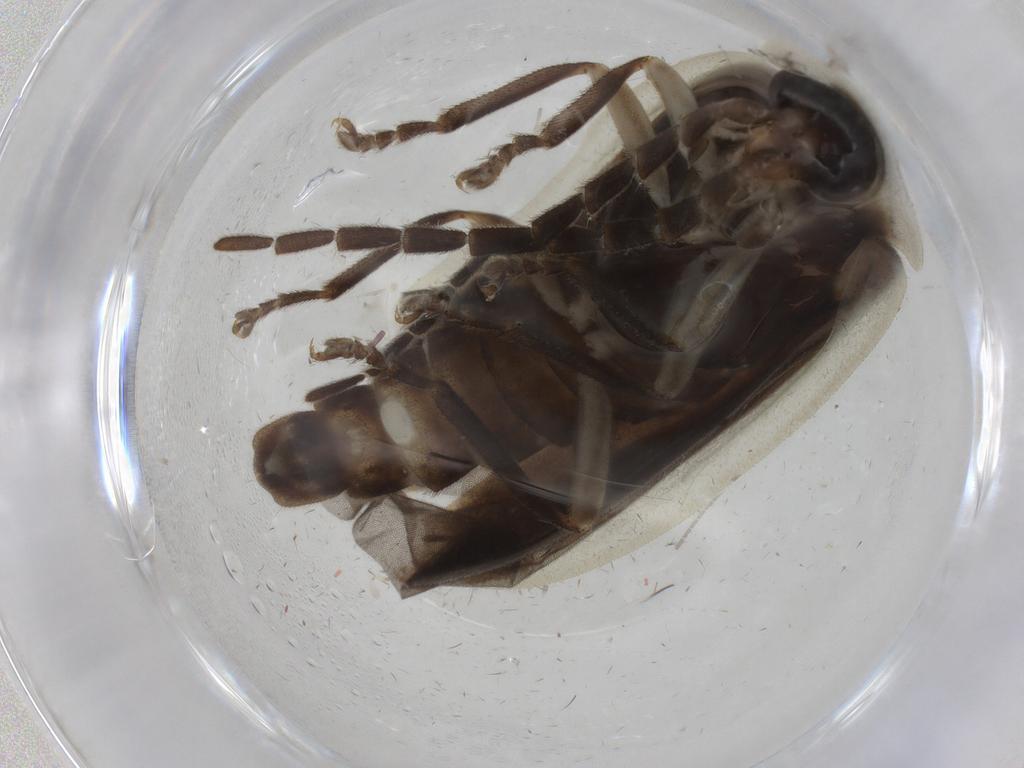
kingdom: Animalia
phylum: Arthropoda
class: Insecta
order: Coleoptera
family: Lampyridae
